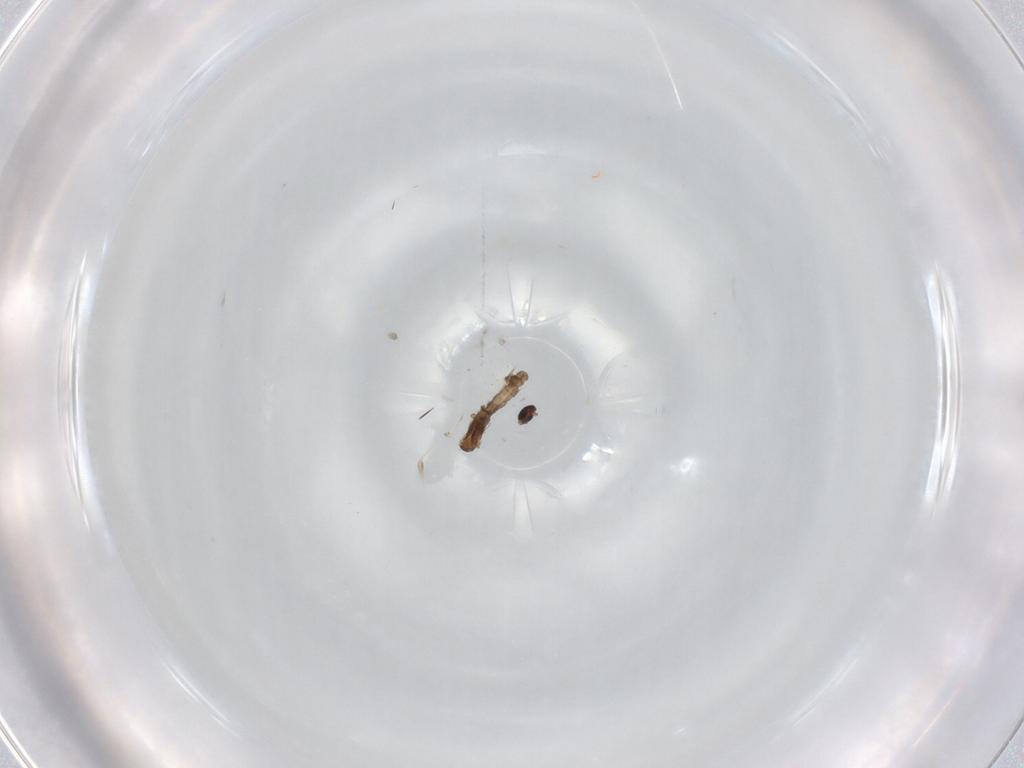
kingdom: Animalia
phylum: Arthropoda
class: Insecta
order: Diptera
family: Cecidomyiidae
